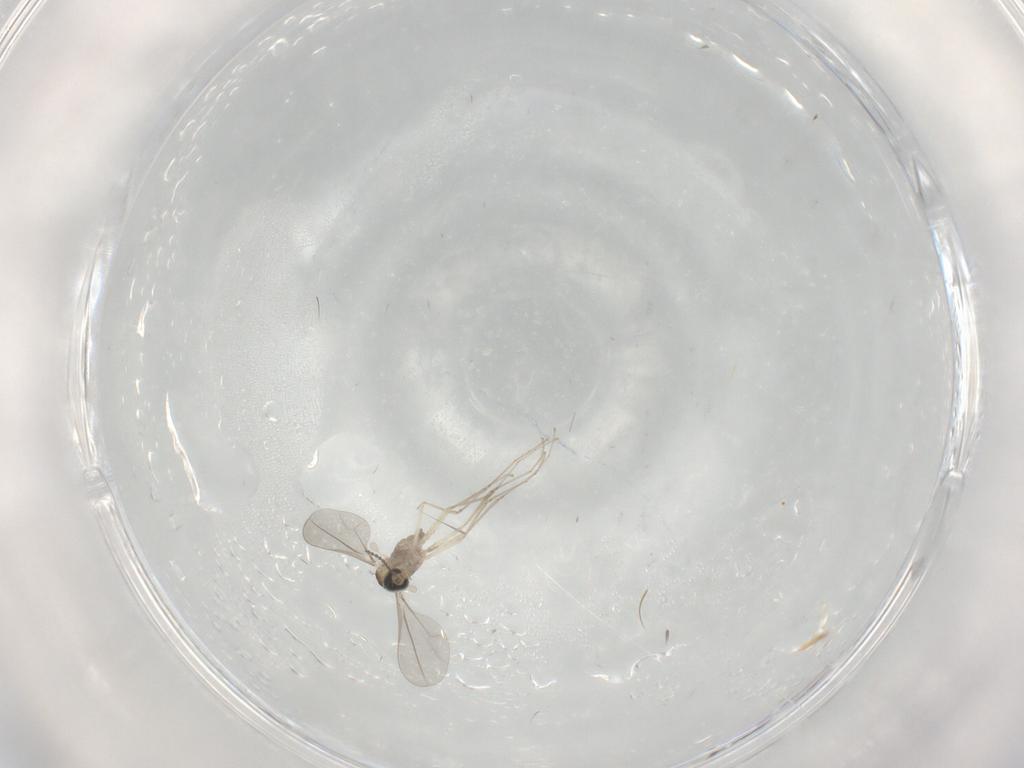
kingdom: Animalia
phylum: Arthropoda
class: Insecta
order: Diptera
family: Cecidomyiidae
